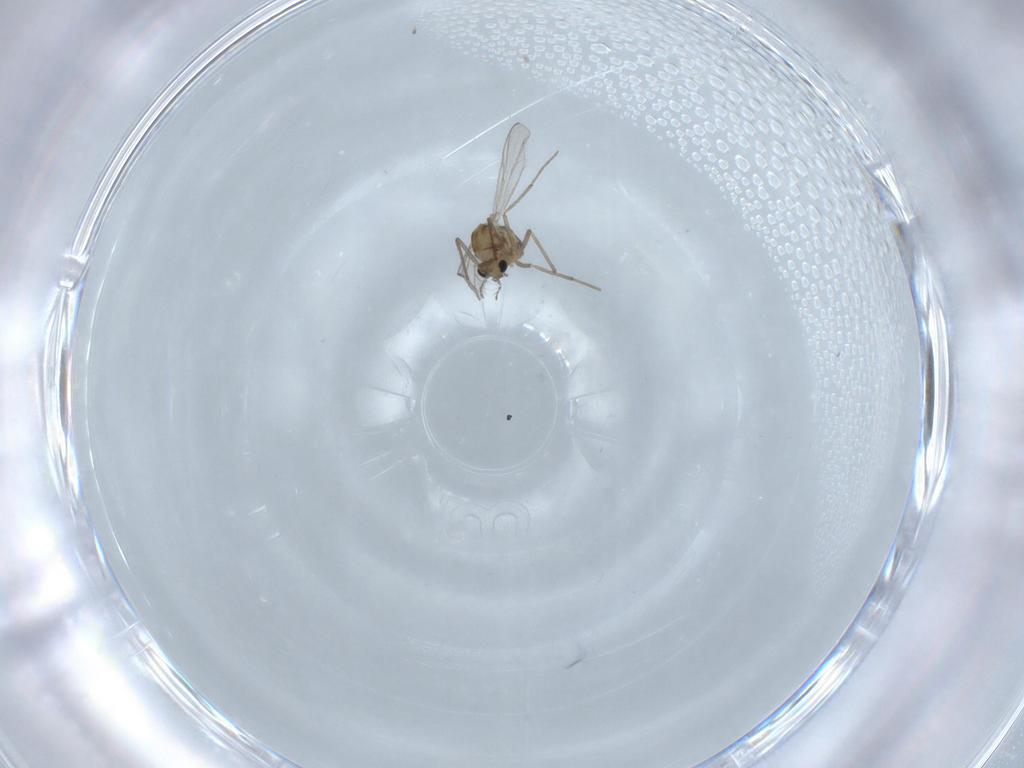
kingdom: Animalia
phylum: Arthropoda
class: Insecta
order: Diptera
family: Chironomidae
